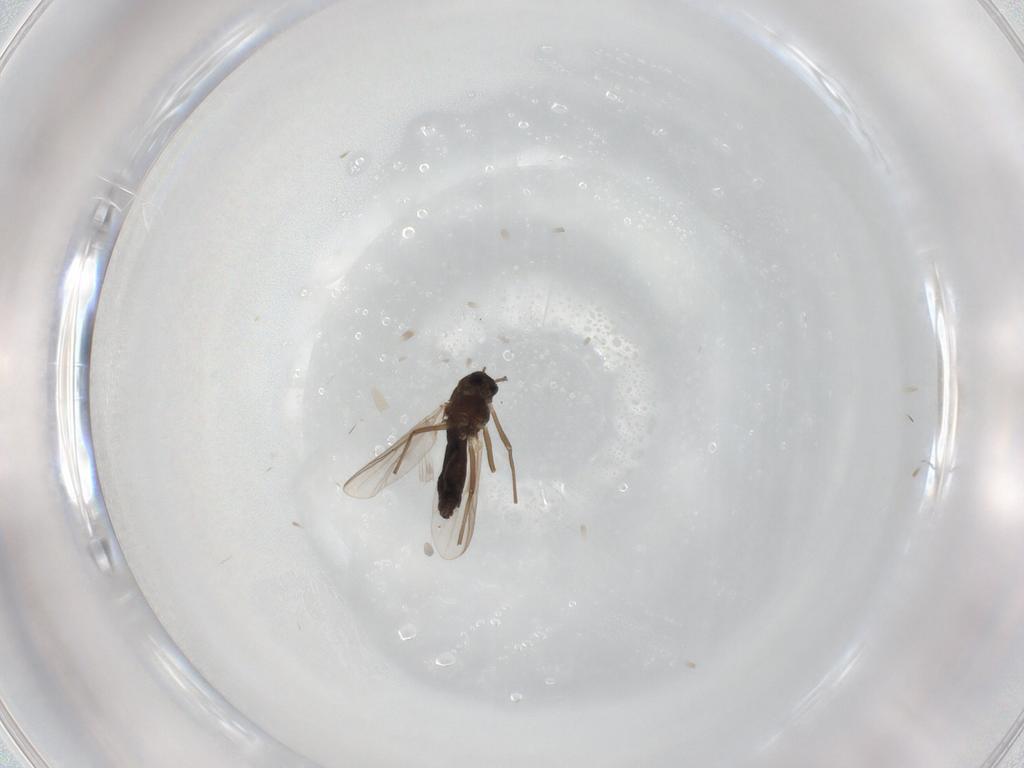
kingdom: Animalia
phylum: Arthropoda
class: Insecta
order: Diptera
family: Chironomidae
